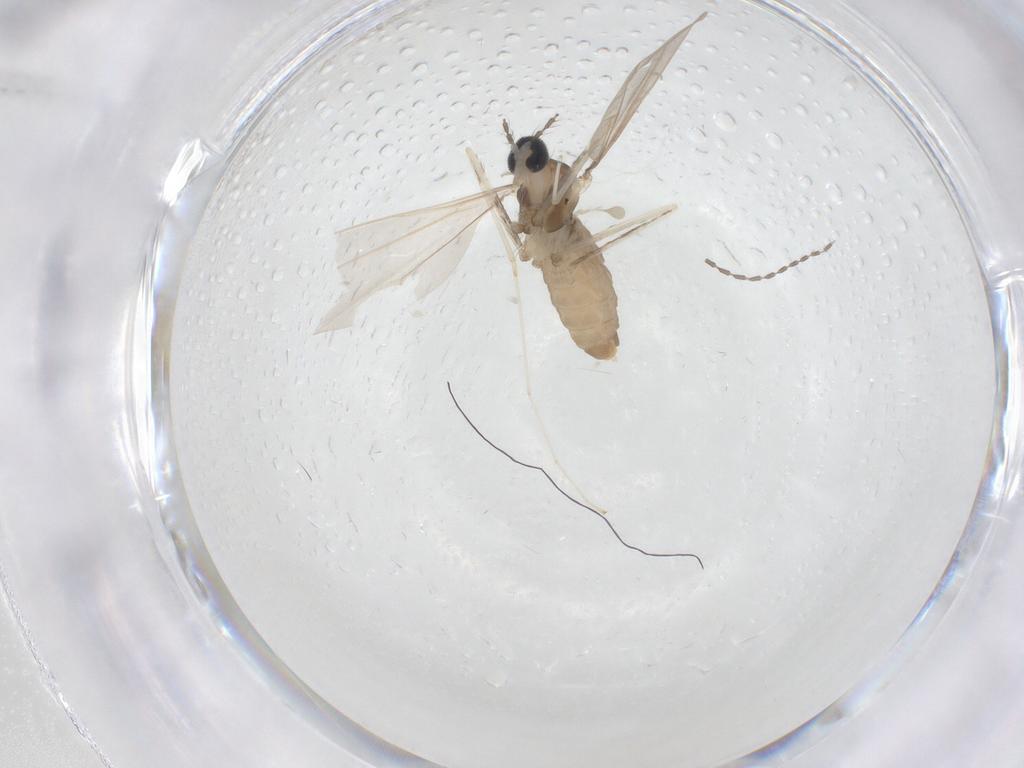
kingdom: Animalia
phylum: Arthropoda
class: Insecta
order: Diptera
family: Cecidomyiidae
